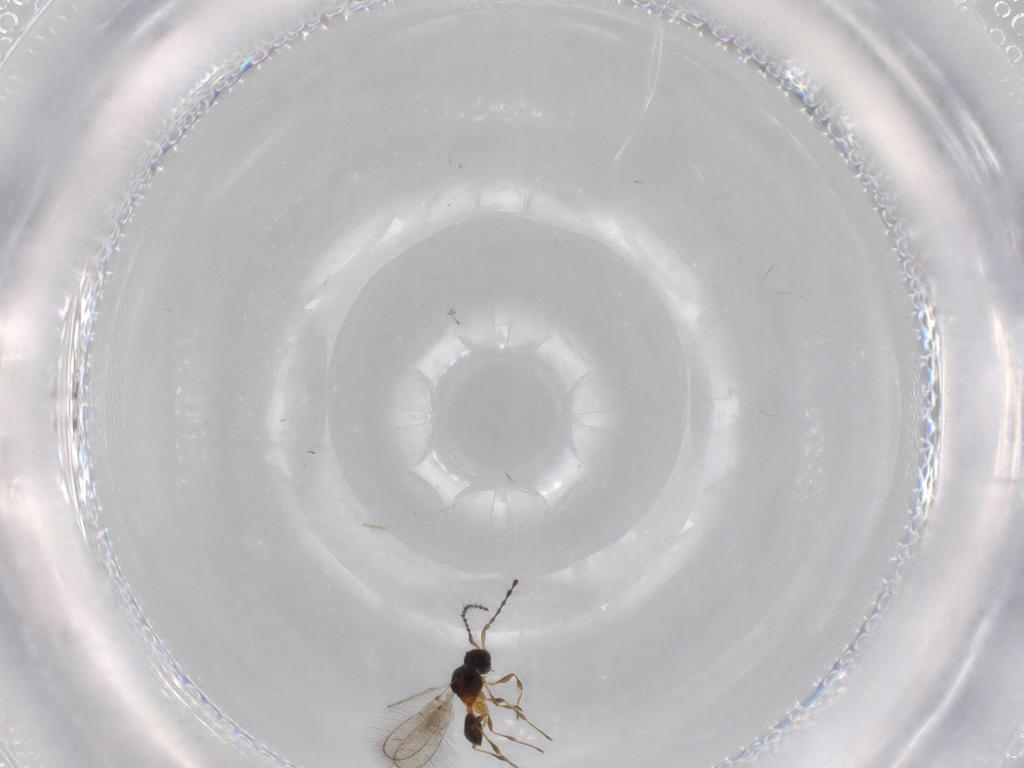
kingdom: Animalia
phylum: Arthropoda
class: Insecta
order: Hymenoptera
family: Diapriidae
